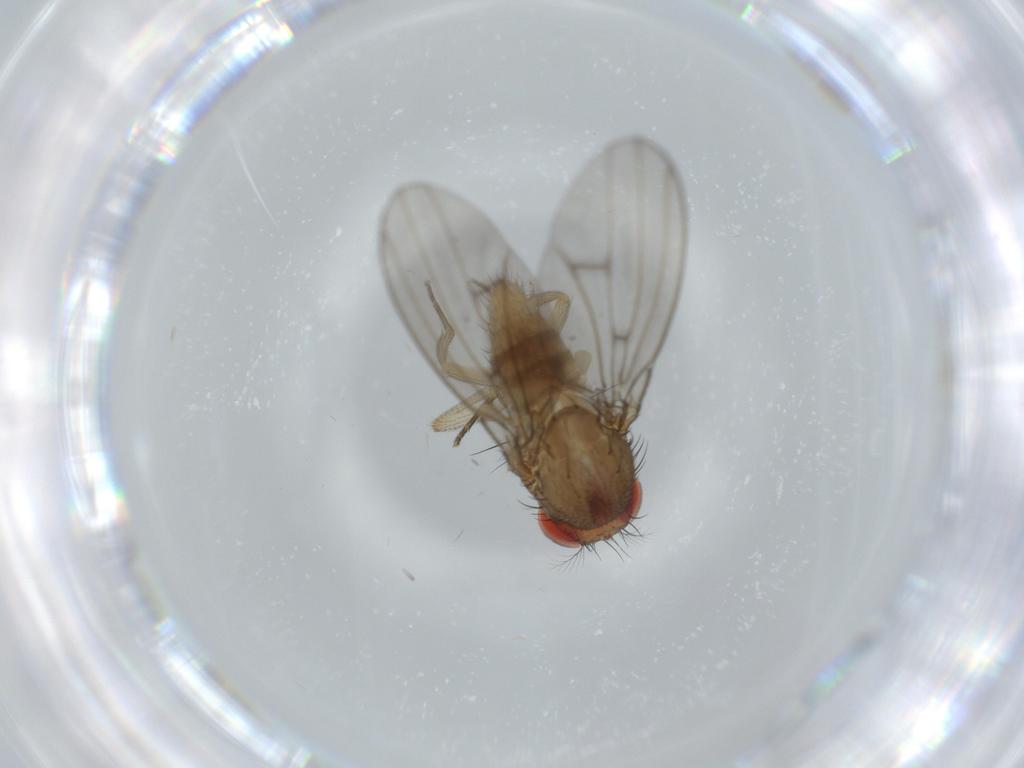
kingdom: Animalia
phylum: Arthropoda
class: Insecta
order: Diptera
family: Drosophilidae
